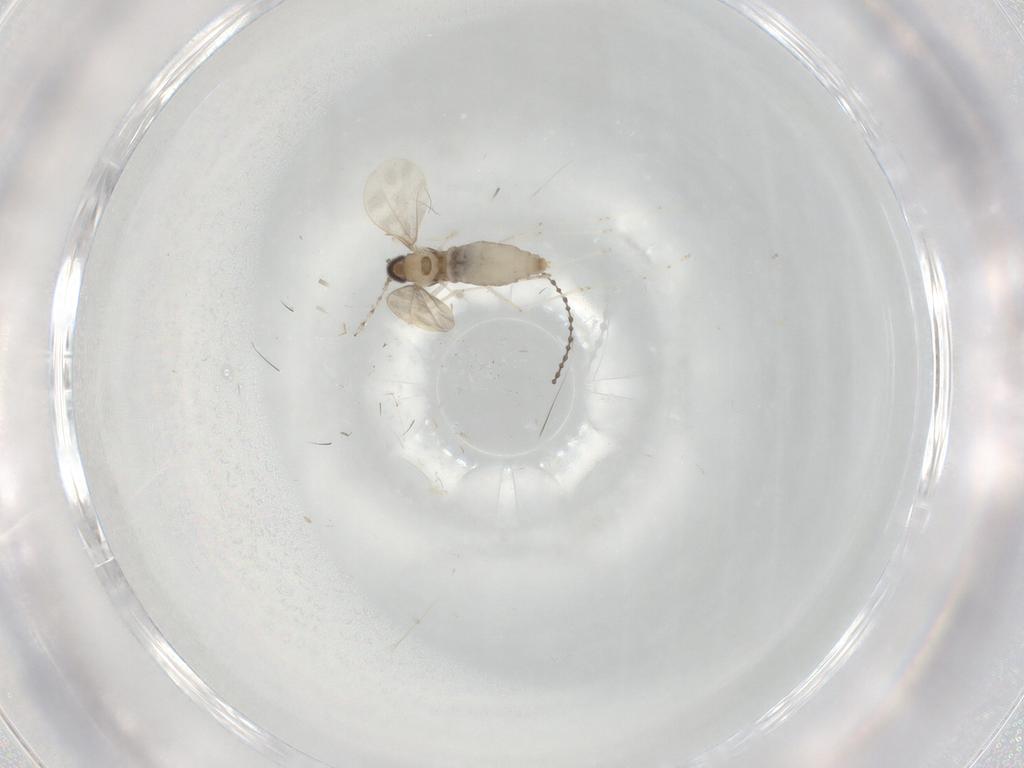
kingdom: Animalia
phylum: Arthropoda
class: Insecta
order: Diptera
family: Cecidomyiidae
